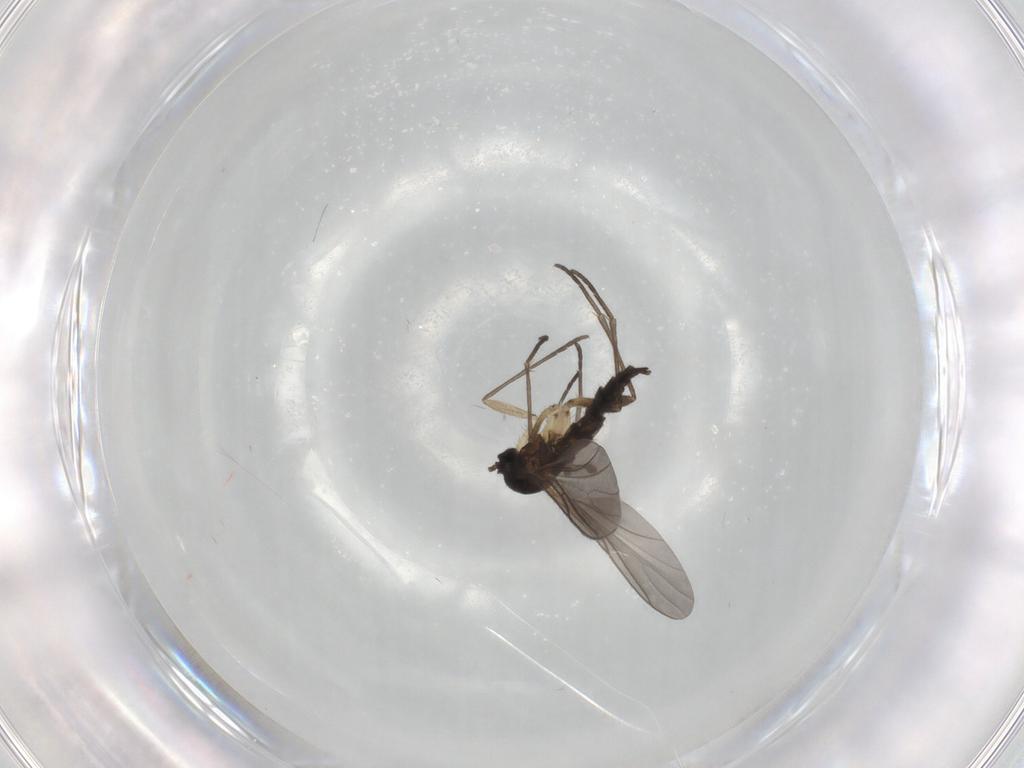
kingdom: Animalia
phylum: Arthropoda
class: Insecta
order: Diptera
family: Sciaridae
